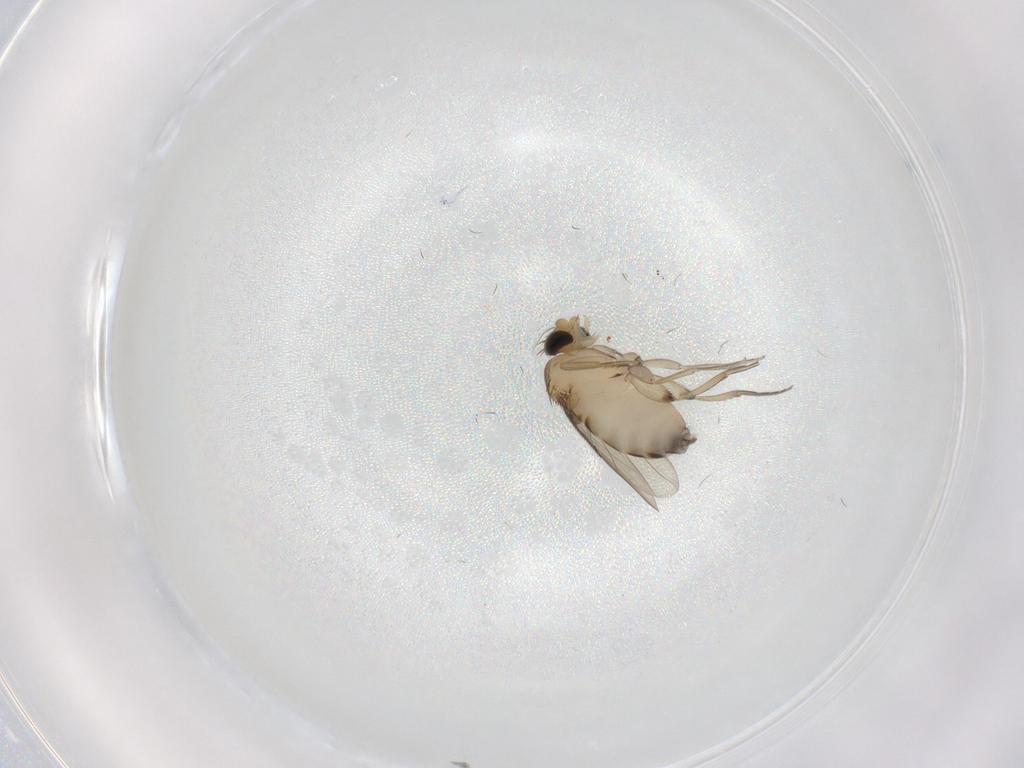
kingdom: Animalia
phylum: Arthropoda
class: Insecta
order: Diptera
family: Phoridae
